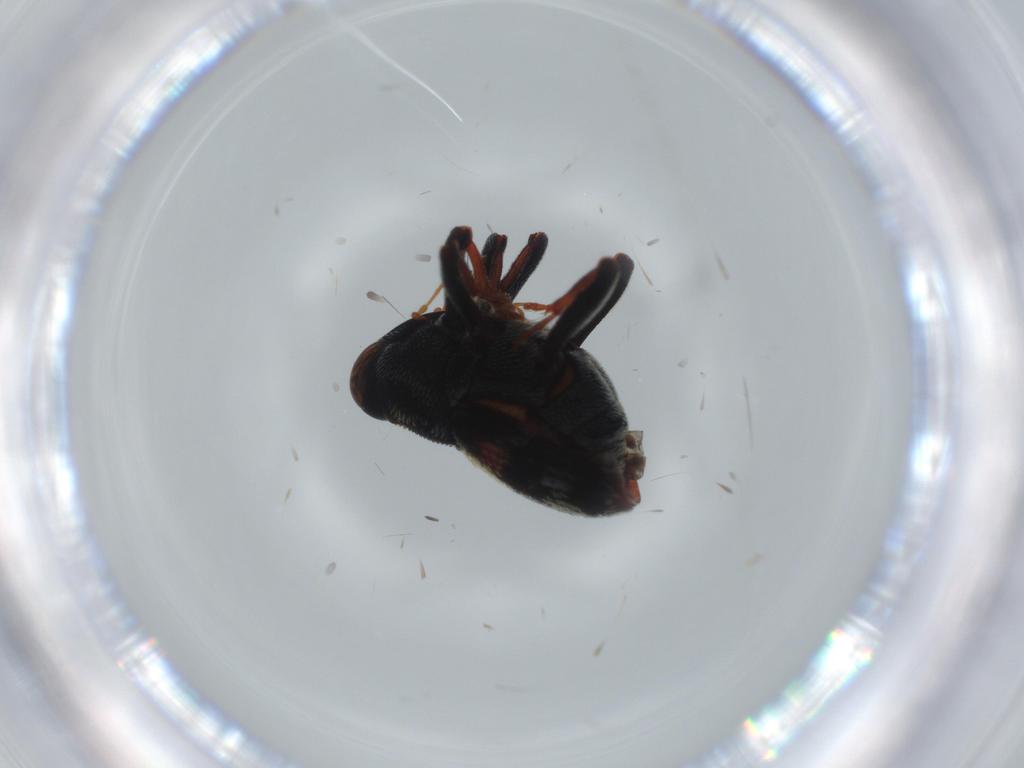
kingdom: Animalia
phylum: Arthropoda
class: Insecta
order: Coleoptera
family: Curculionidae
